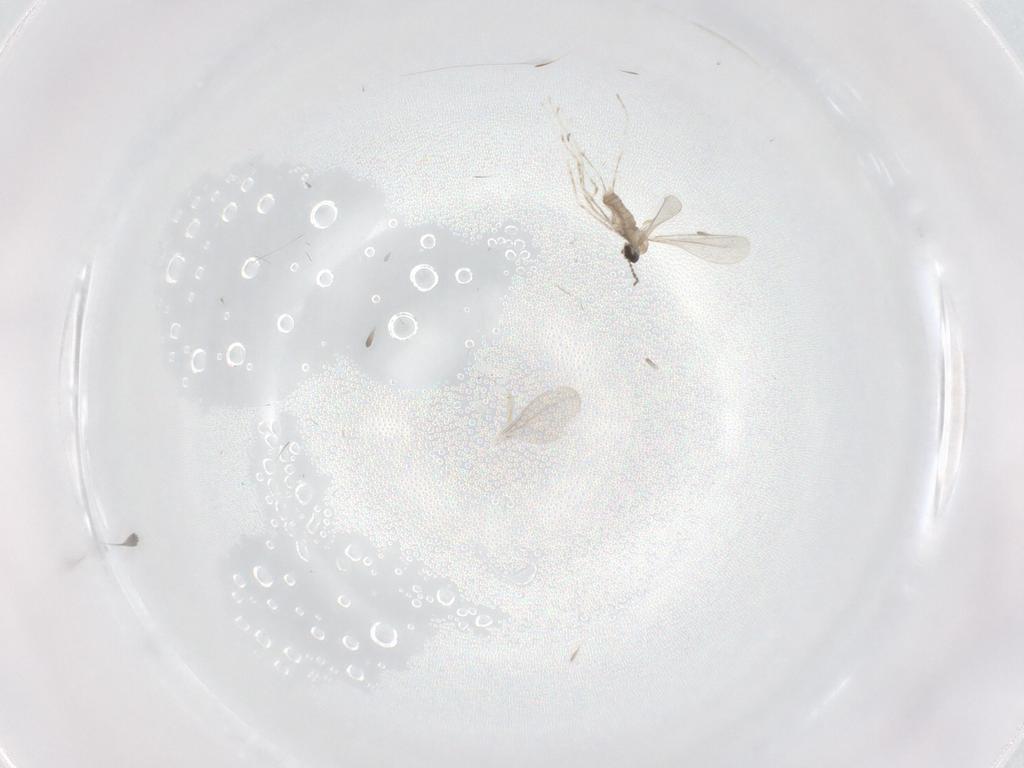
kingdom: Animalia
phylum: Arthropoda
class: Insecta
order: Diptera
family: Cecidomyiidae
